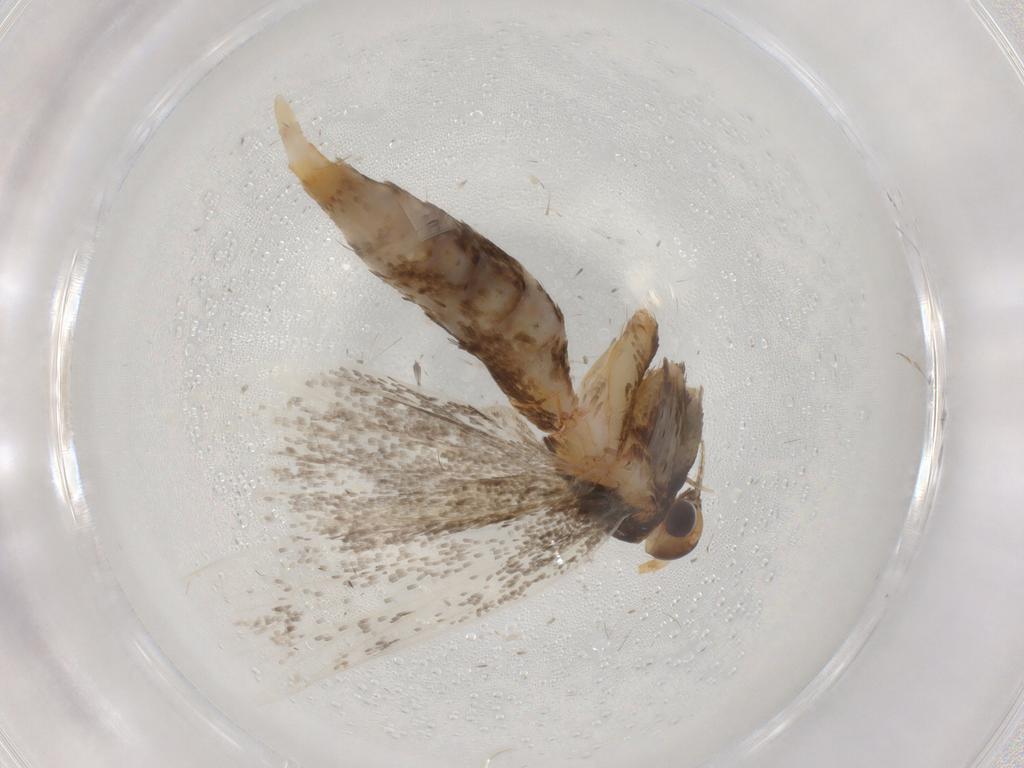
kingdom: Animalia
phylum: Arthropoda
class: Insecta
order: Lepidoptera
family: Lecithoceridae
